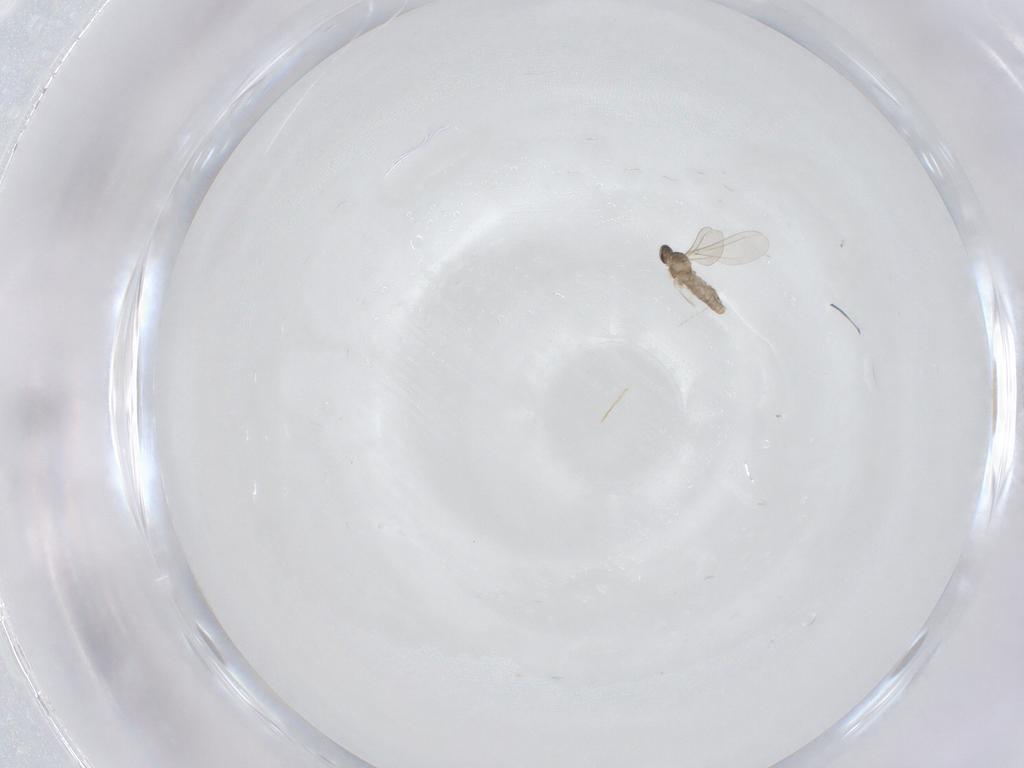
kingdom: Animalia
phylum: Arthropoda
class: Insecta
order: Diptera
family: Cecidomyiidae
